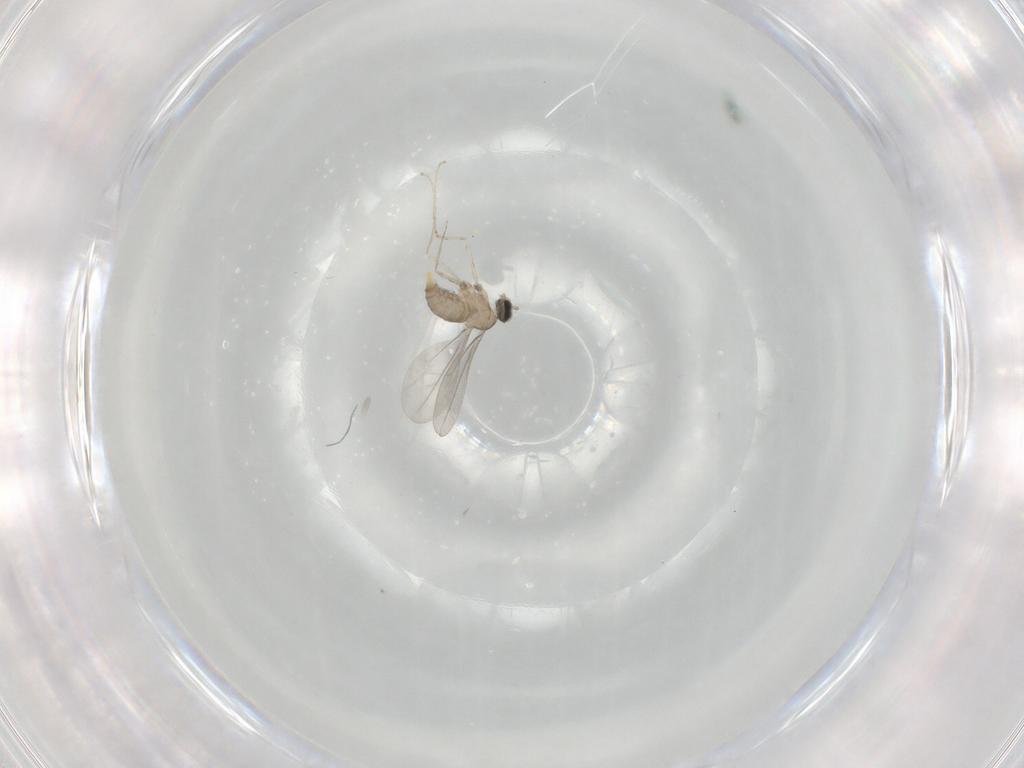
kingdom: Animalia
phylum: Arthropoda
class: Insecta
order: Diptera
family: Cecidomyiidae
